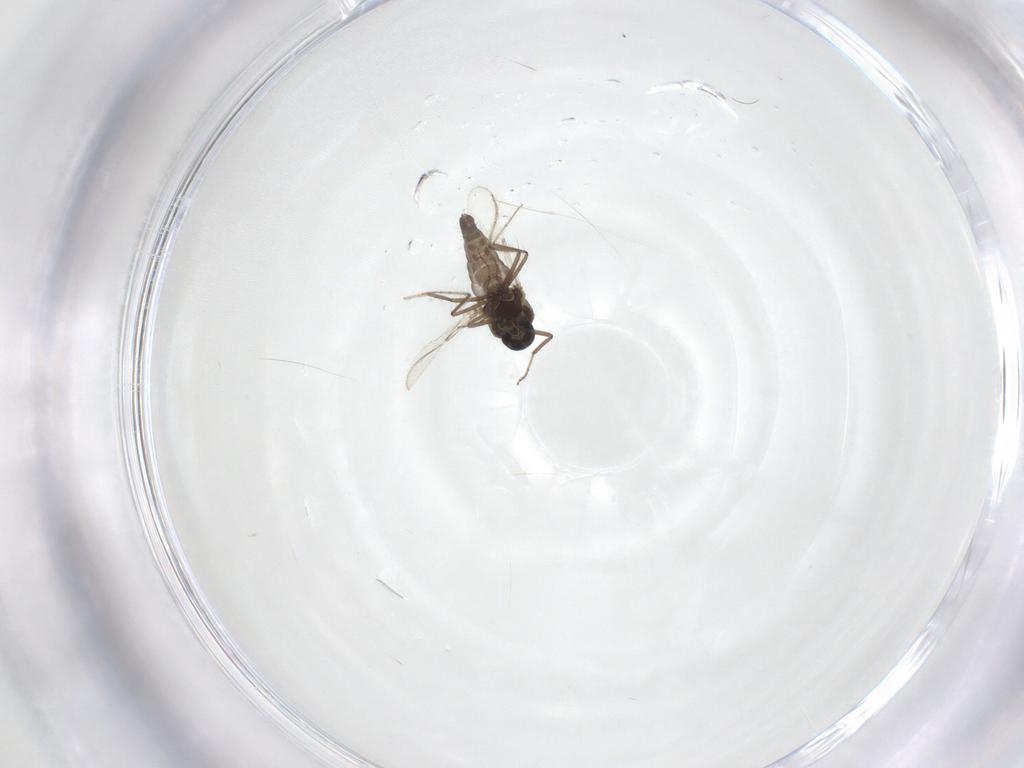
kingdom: Animalia
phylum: Arthropoda
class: Insecta
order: Diptera
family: Ceratopogonidae
